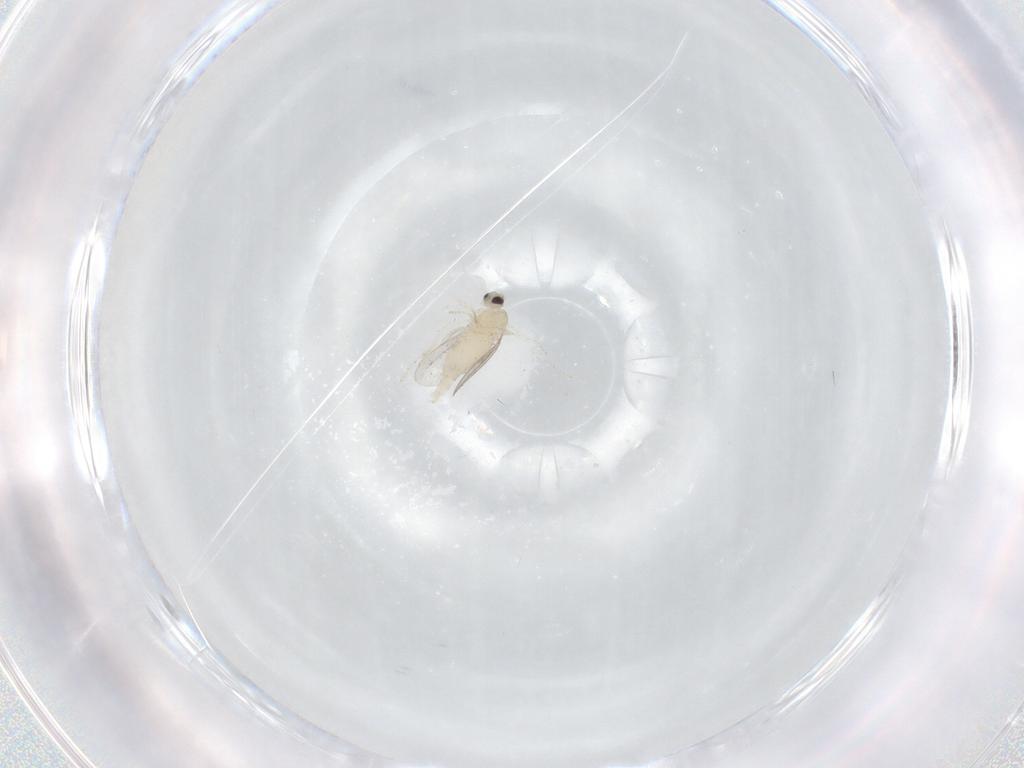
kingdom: Animalia
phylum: Arthropoda
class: Insecta
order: Diptera
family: Cecidomyiidae
